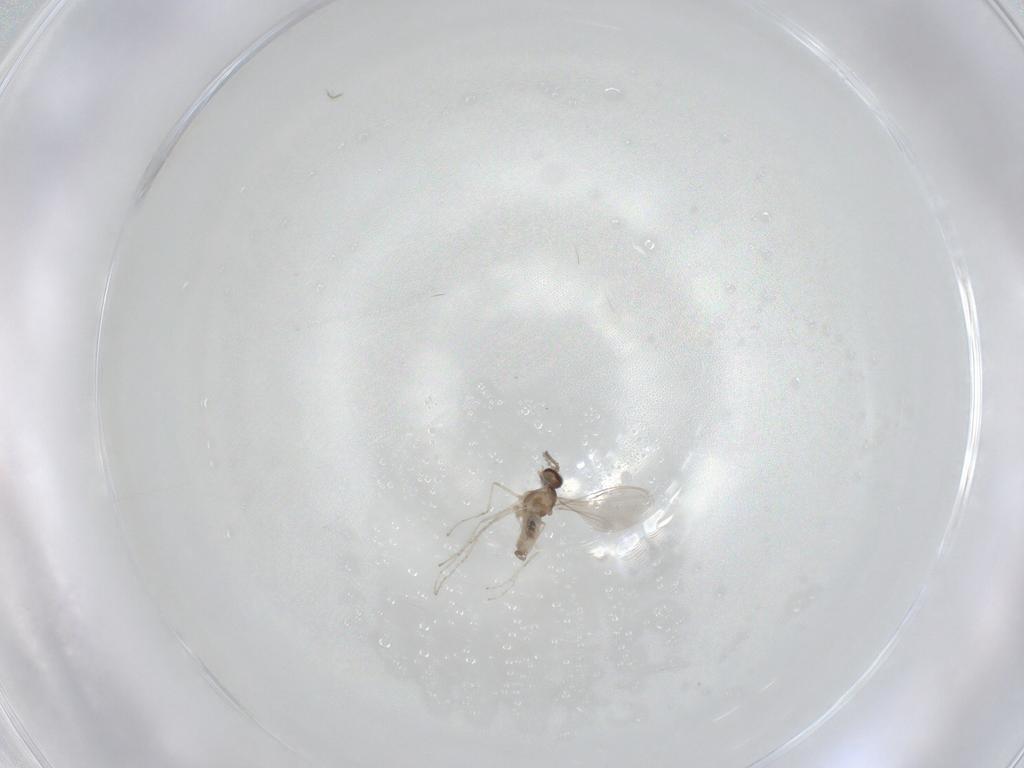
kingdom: Animalia
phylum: Arthropoda
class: Insecta
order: Diptera
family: Cecidomyiidae
